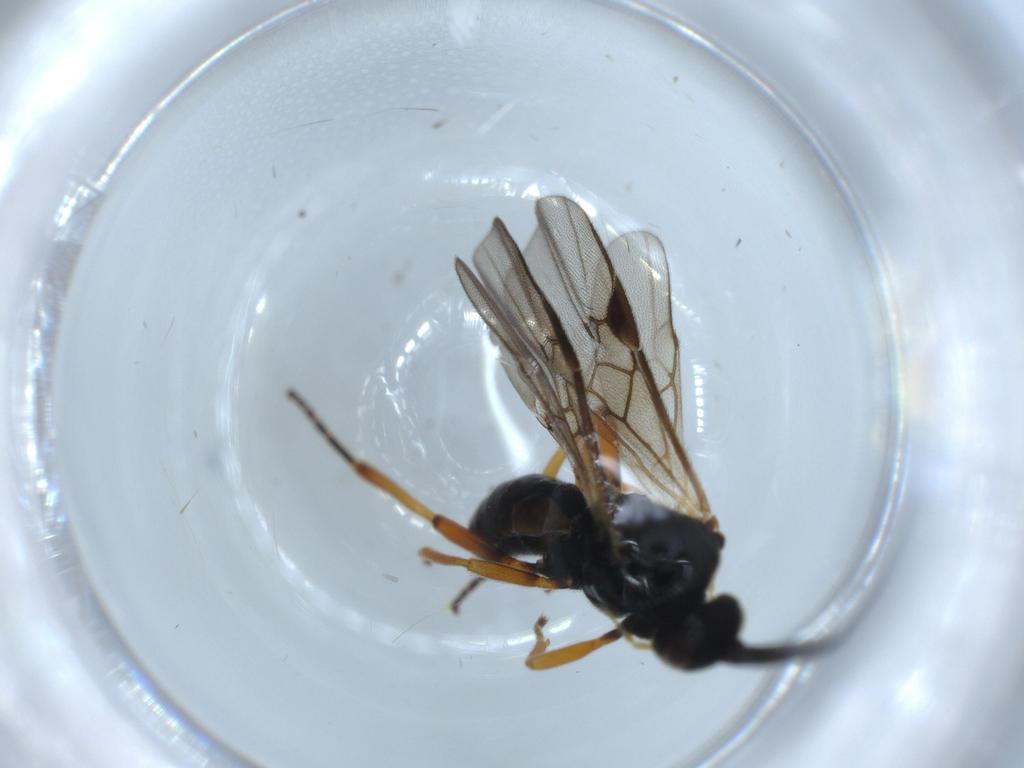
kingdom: Animalia
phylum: Arthropoda
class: Insecta
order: Hymenoptera
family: Braconidae
